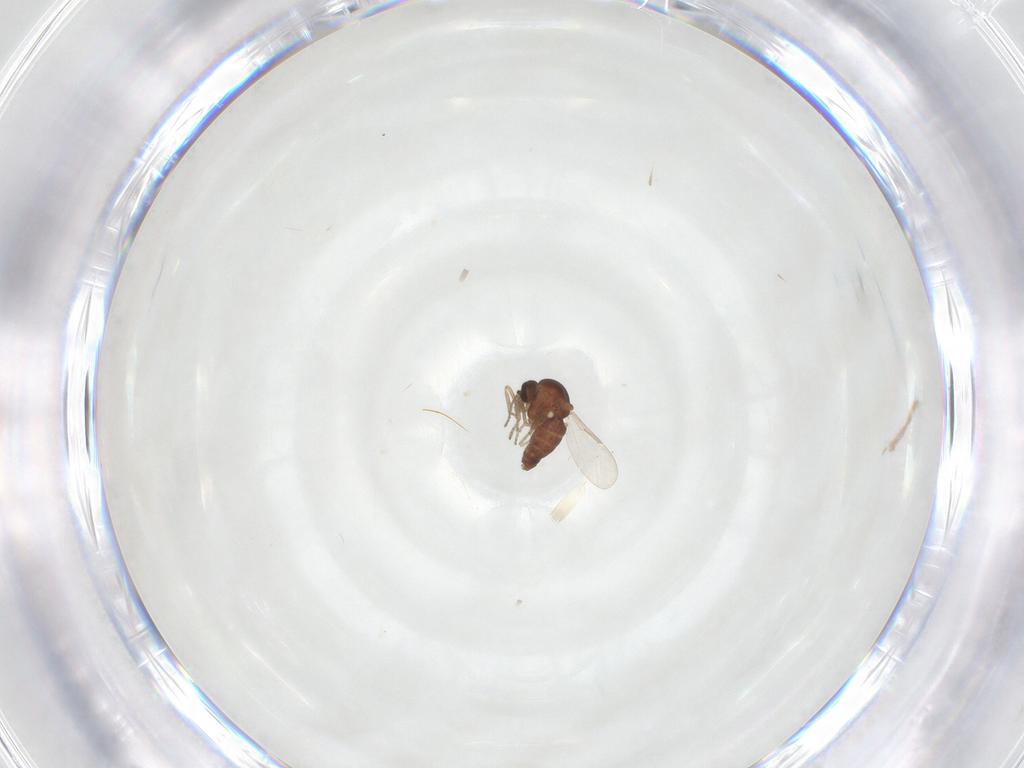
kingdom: Animalia
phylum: Arthropoda
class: Insecta
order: Diptera
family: Ceratopogonidae
